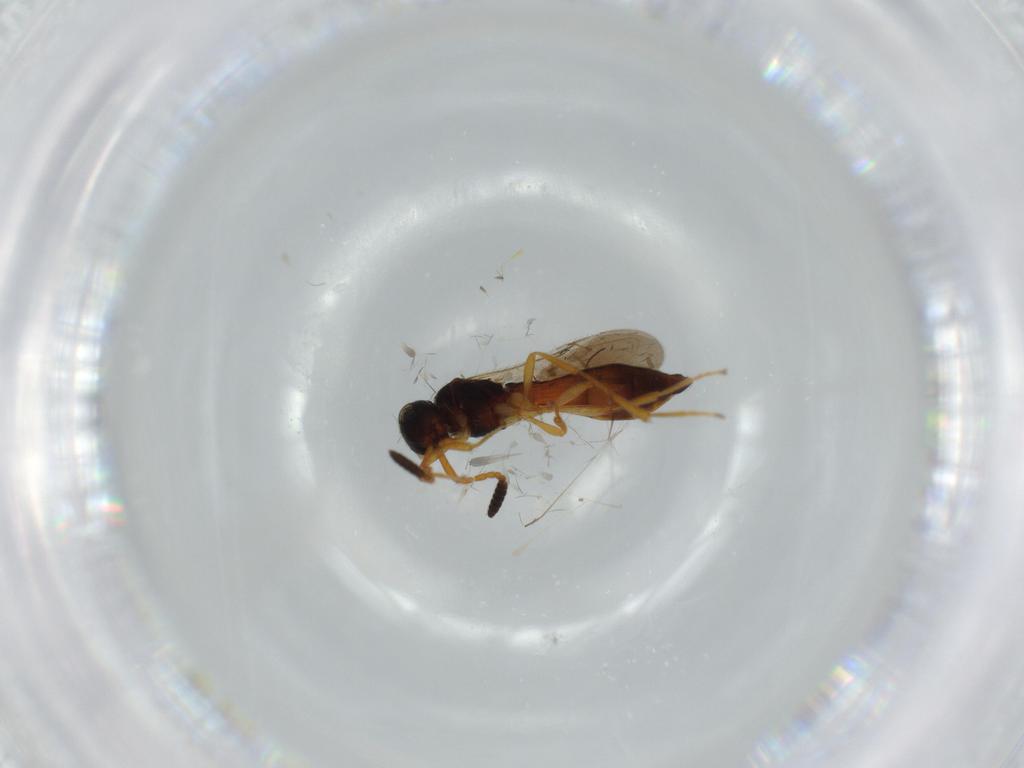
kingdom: Animalia
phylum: Arthropoda
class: Insecta
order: Hymenoptera
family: Scelionidae
